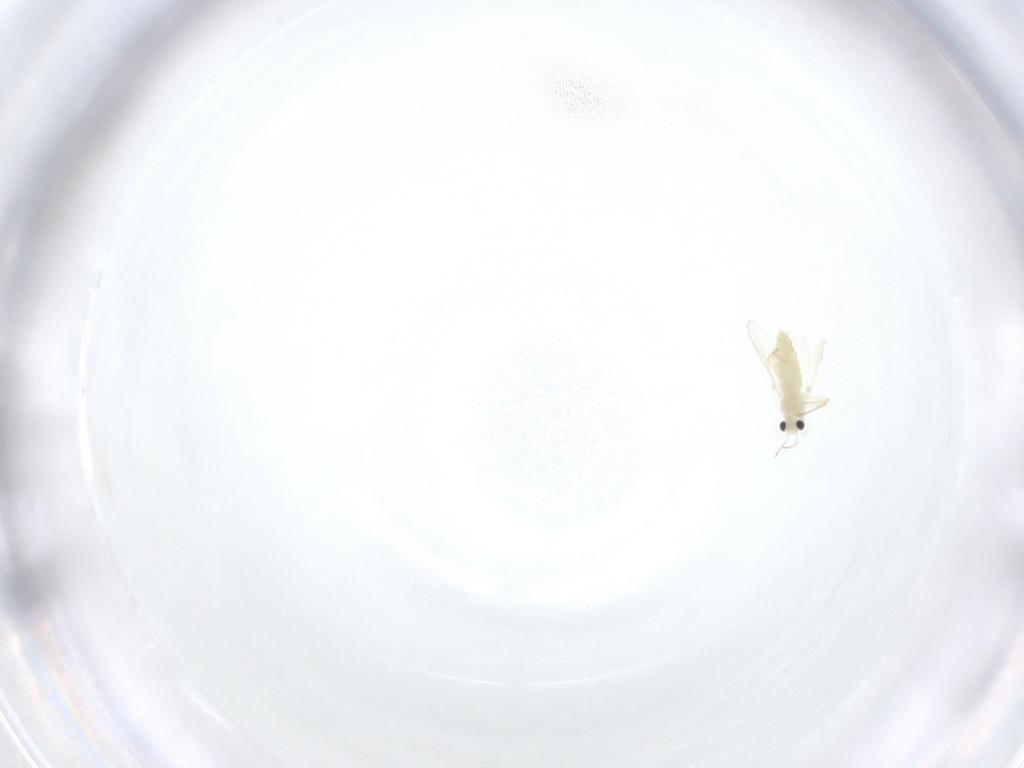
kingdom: Animalia
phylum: Arthropoda
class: Insecta
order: Diptera
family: Chironomidae
